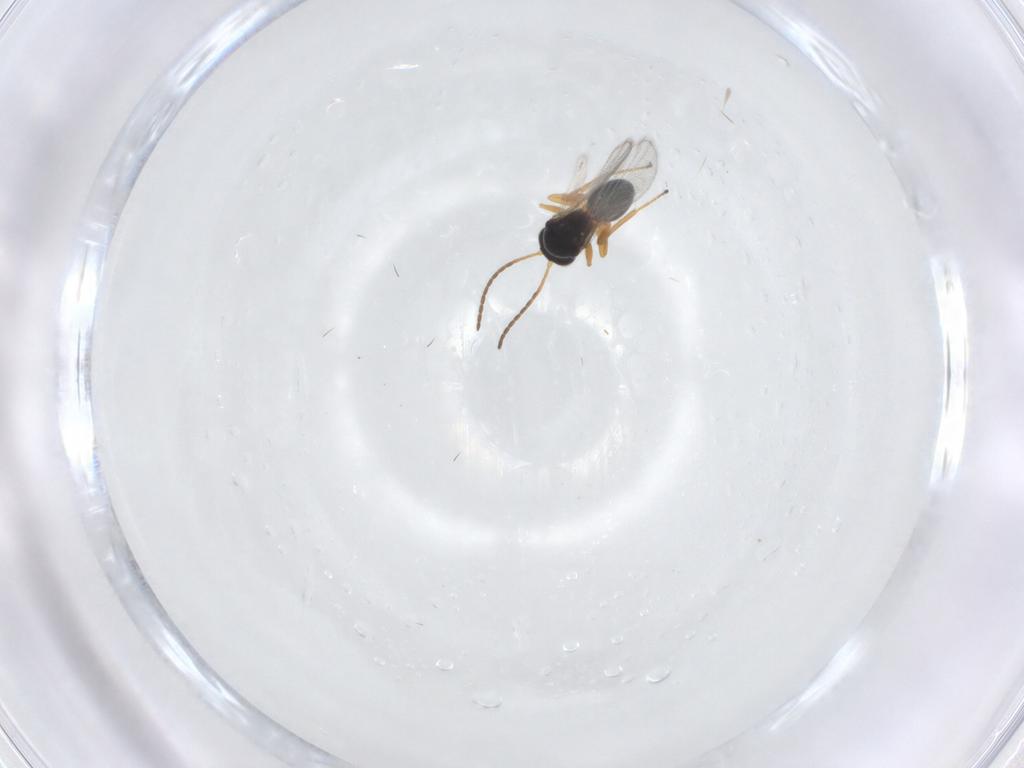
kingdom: Animalia
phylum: Arthropoda
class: Insecta
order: Hymenoptera
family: Figitidae
